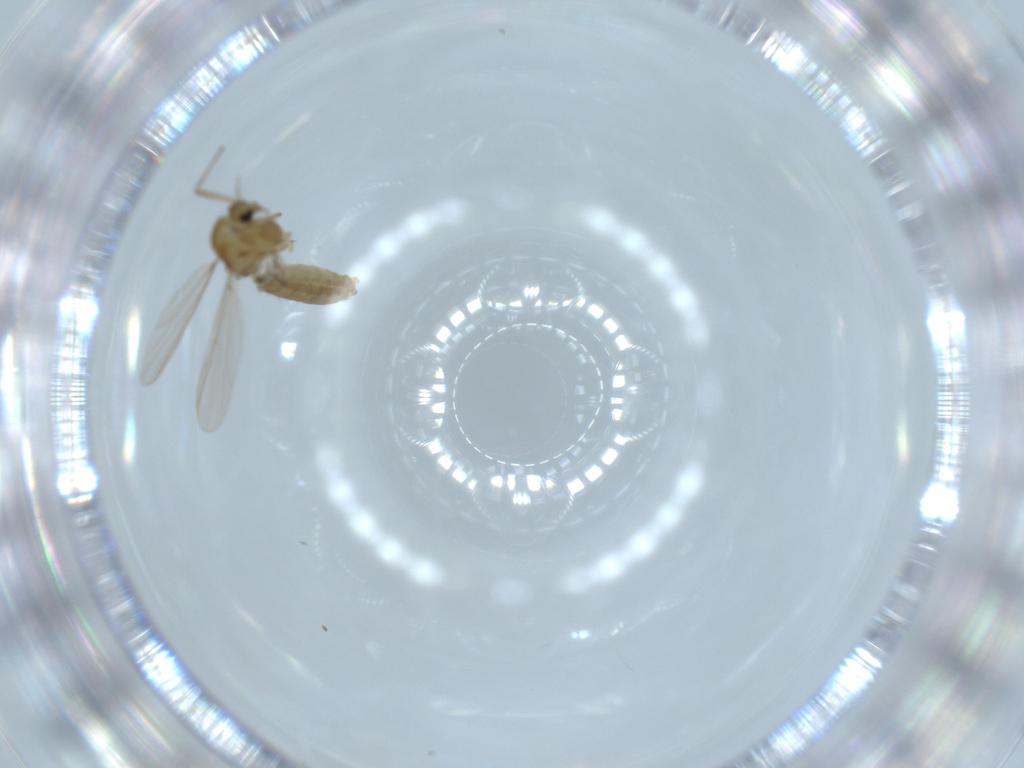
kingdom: Animalia
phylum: Arthropoda
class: Insecta
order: Diptera
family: Chironomidae
